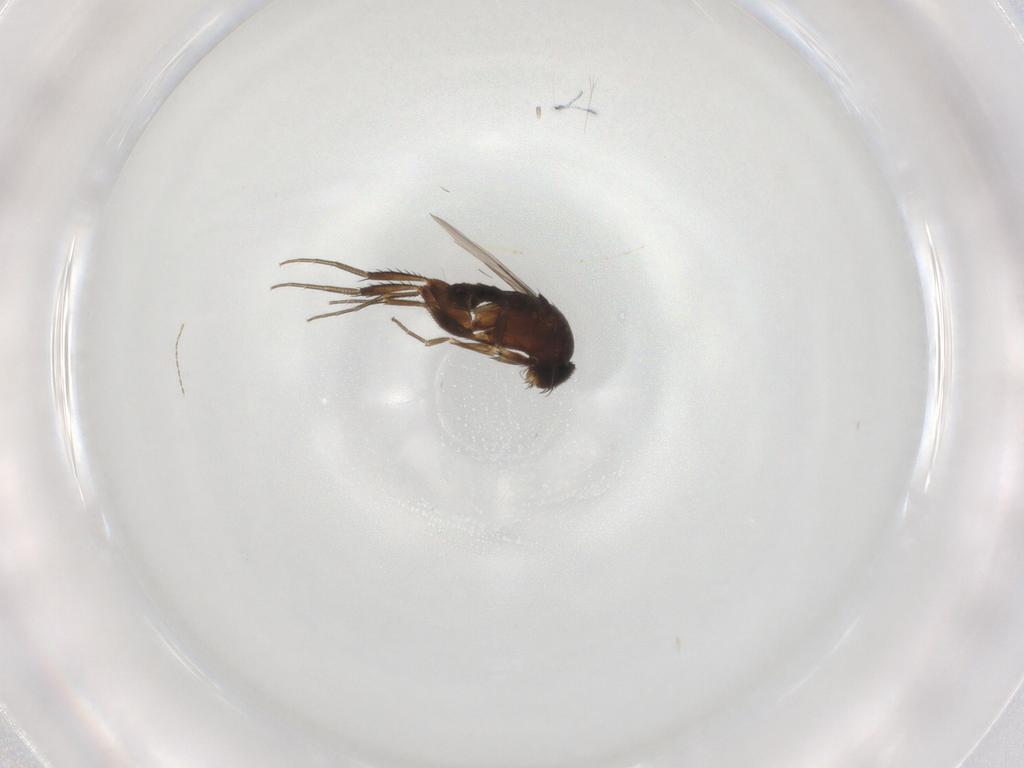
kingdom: Animalia
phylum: Arthropoda
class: Insecta
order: Diptera
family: Phoridae
